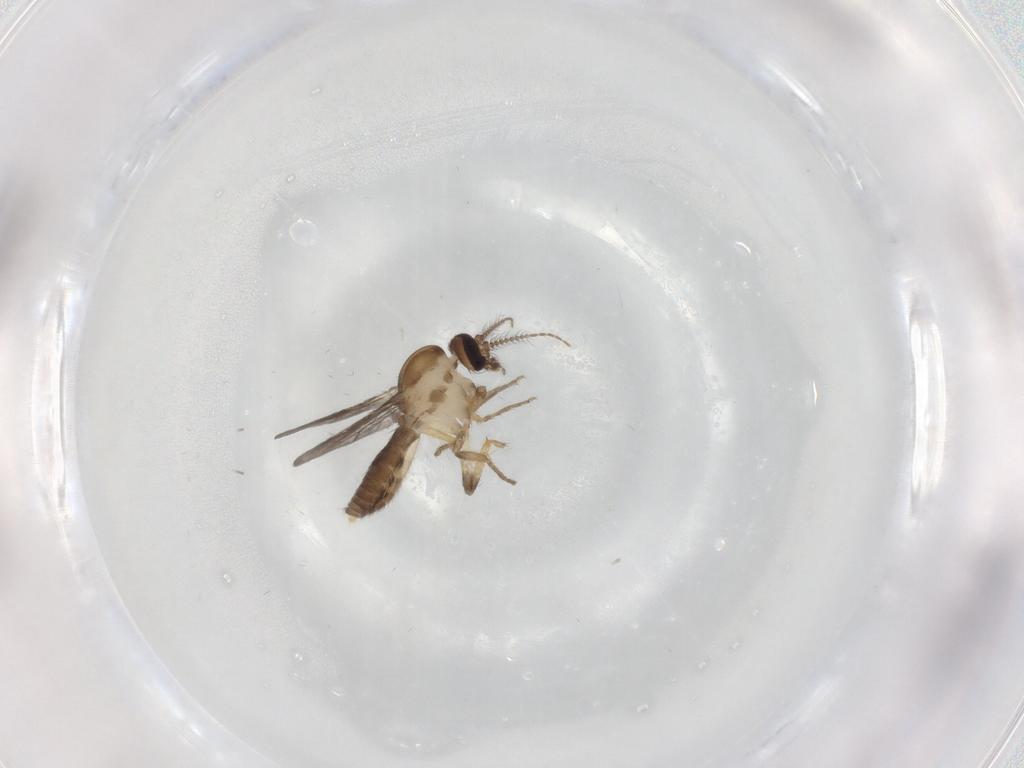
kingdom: Animalia
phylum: Arthropoda
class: Insecta
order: Diptera
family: Ceratopogonidae
